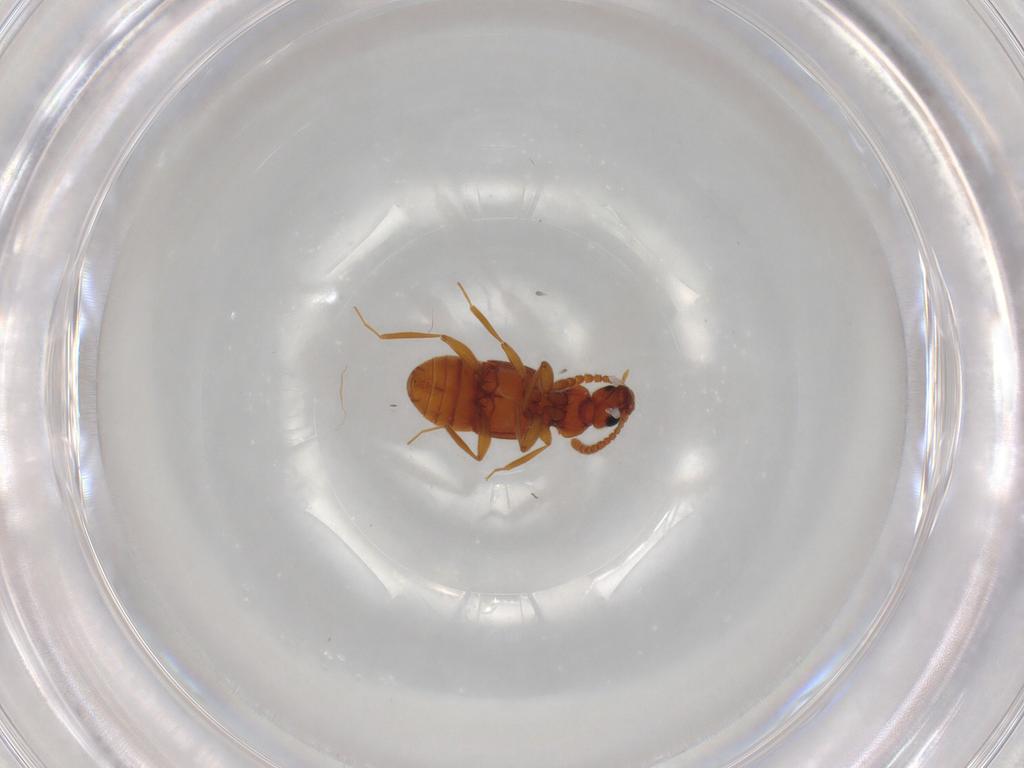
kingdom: Animalia
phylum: Arthropoda
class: Insecta
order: Coleoptera
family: Staphylinidae
